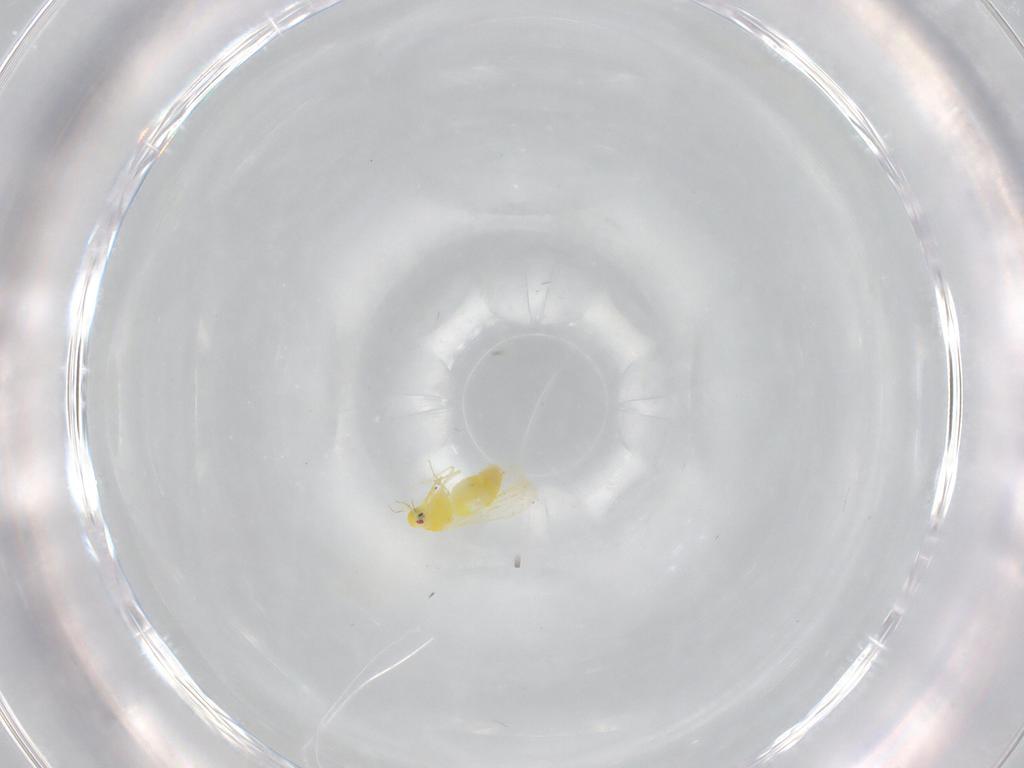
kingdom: Animalia
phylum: Arthropoda
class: Insecta
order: Hemiptera
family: Aleyrodidae
